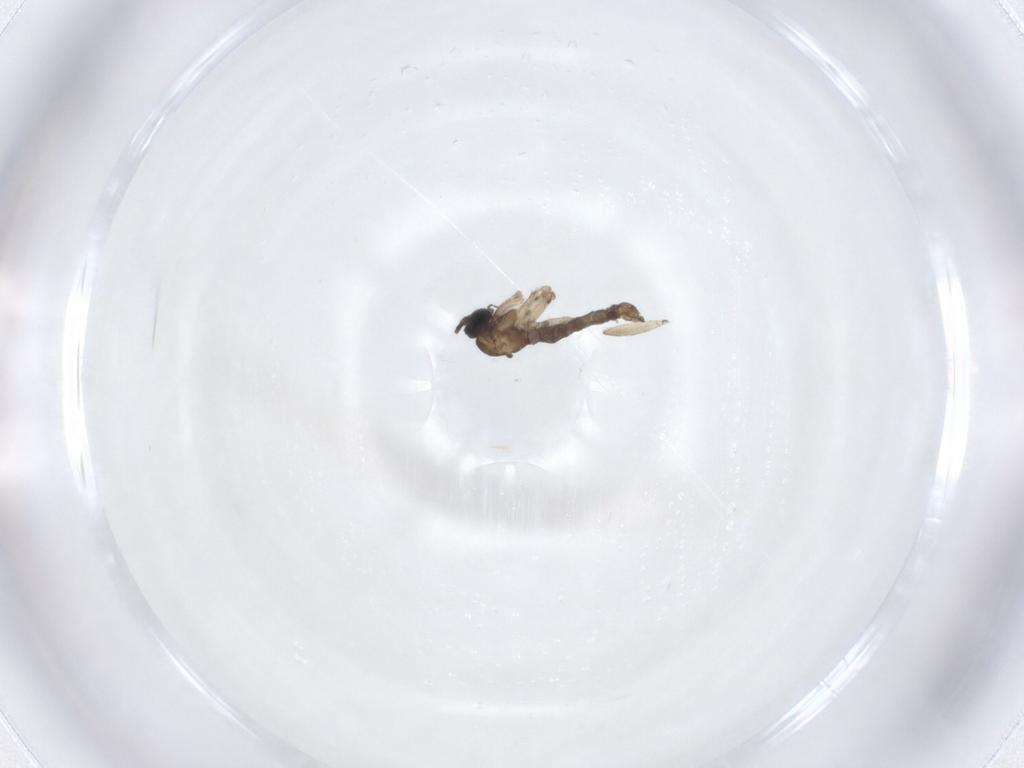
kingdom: Animalia
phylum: Arthropoda
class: Insecta
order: Diptera
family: Sciaridae
